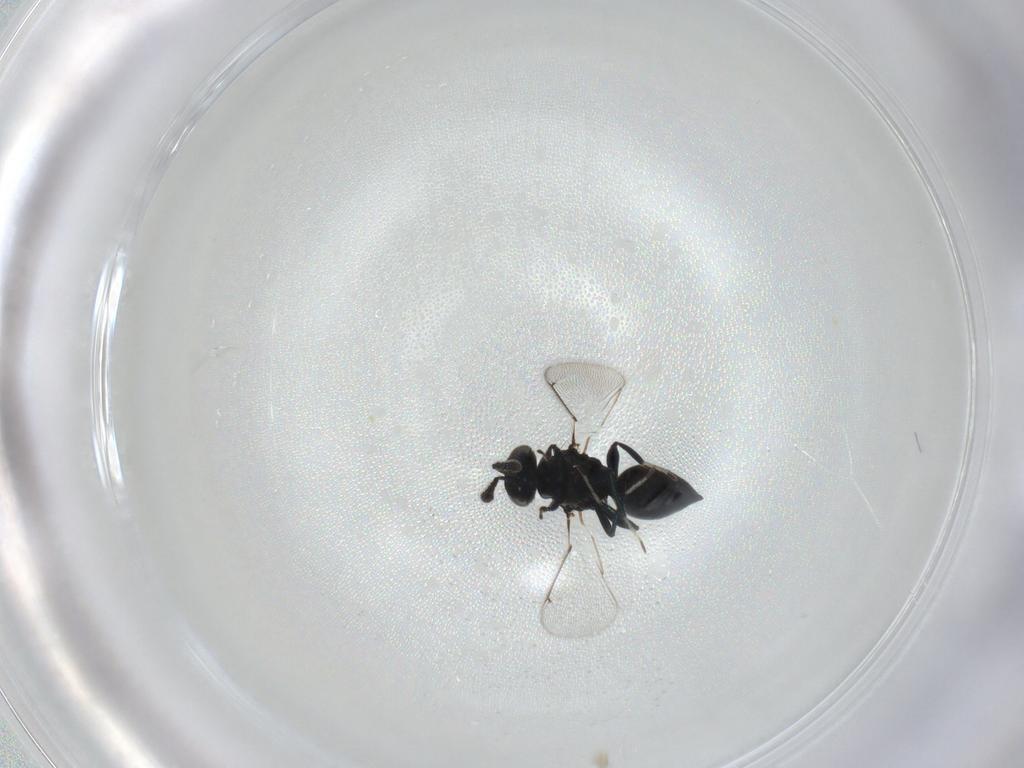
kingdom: Animalia
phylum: Arthropoda
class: Insecta
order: Hymenoptera
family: Eulophidae
